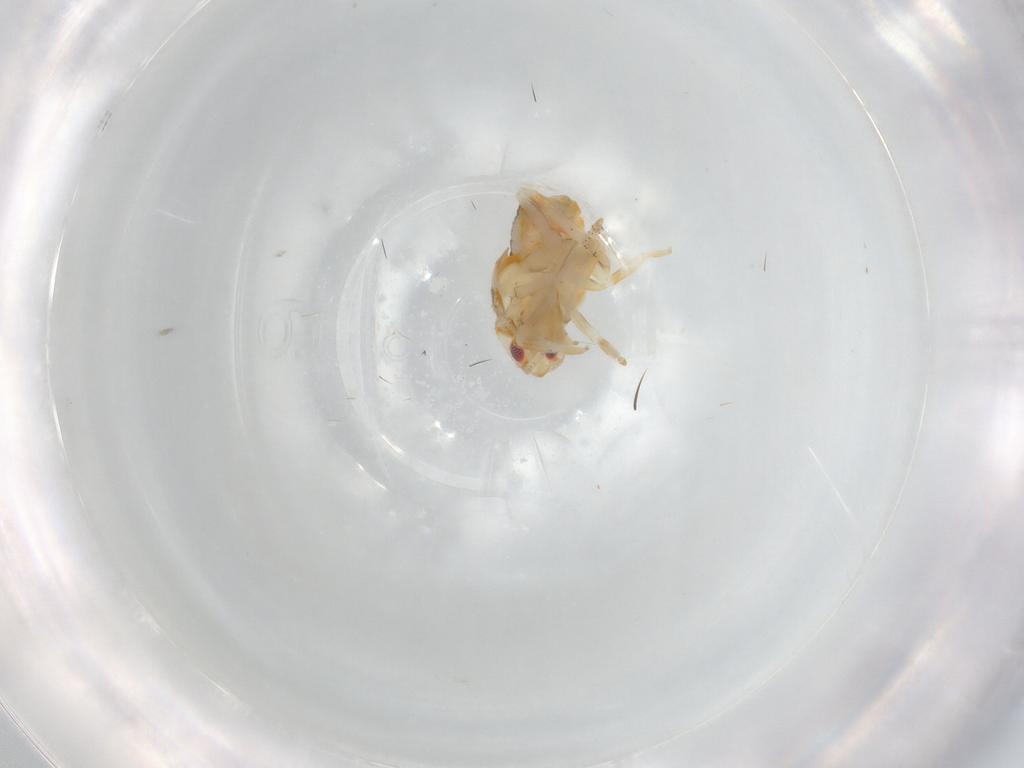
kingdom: Animalia
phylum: Arthropoda
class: Insecta
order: Hemiptera
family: Flatidae
